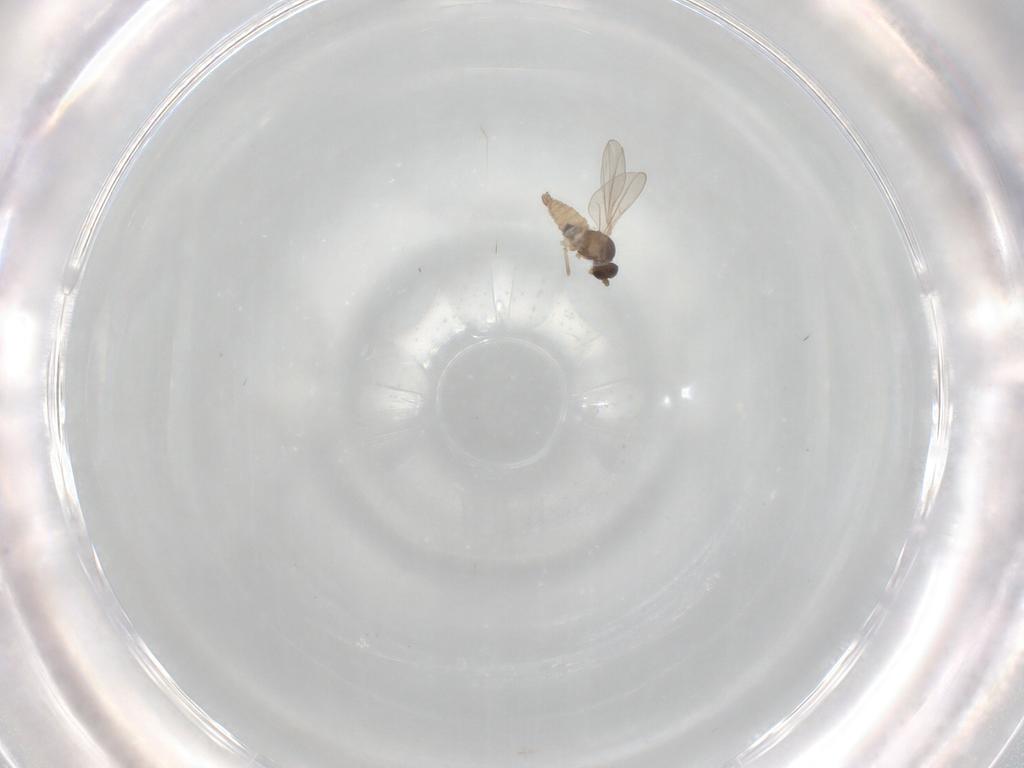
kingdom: Animalia
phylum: Arthropoda
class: Insecta
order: Diptera
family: Cecidomyiidae
